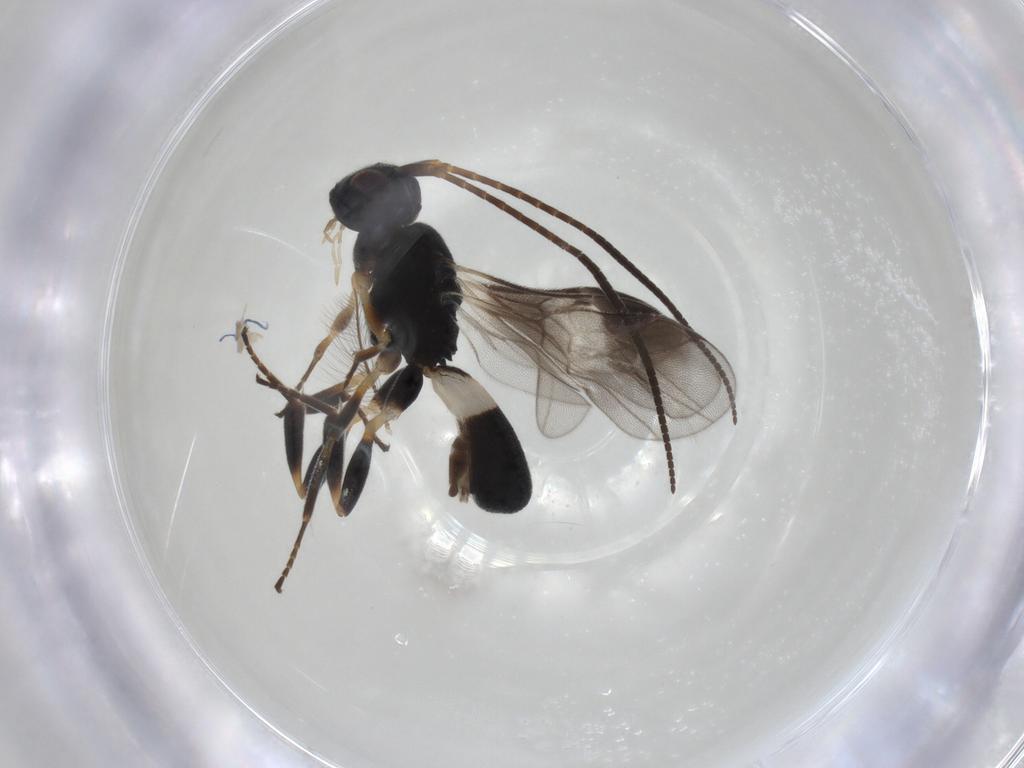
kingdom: Animalia
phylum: Arthropoda
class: Insecta
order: Hymenoptera
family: Braconidae
